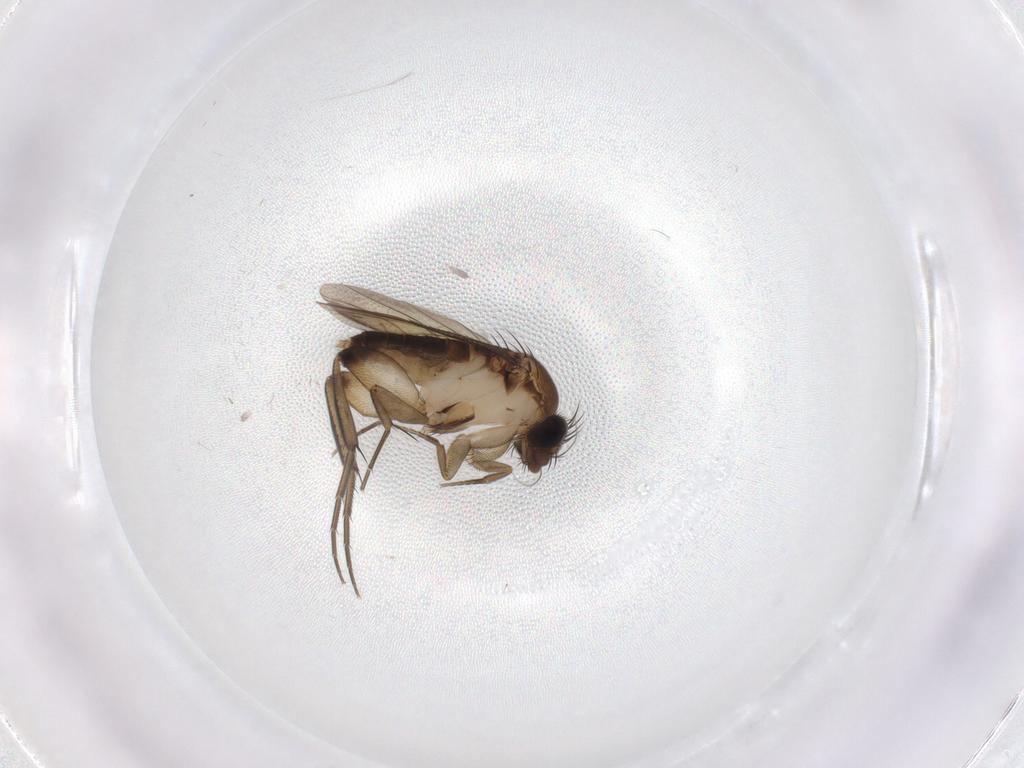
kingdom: Animalia
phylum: Arthropoda
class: Insecta
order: Diptera
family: Phoridae
